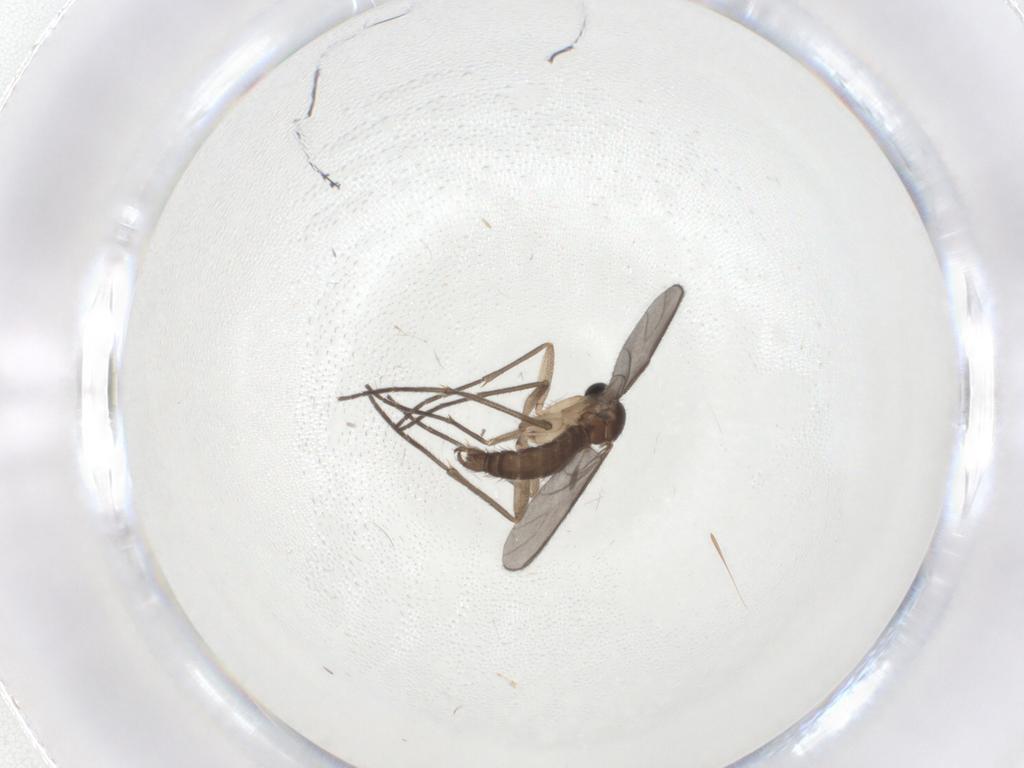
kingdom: Animalia
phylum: Arthropoda
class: Insecta
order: Diptera
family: Sciaridae
